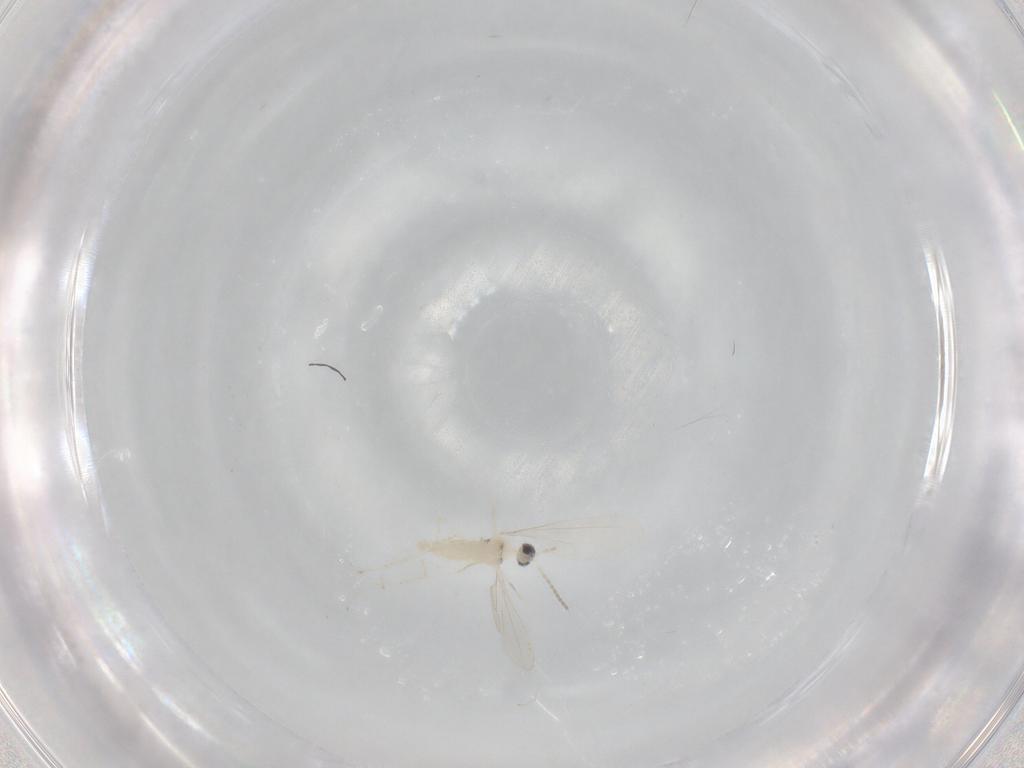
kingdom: Animalia
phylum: Arthropoda
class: Insecta
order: Diptera
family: Cecidomyiidae
